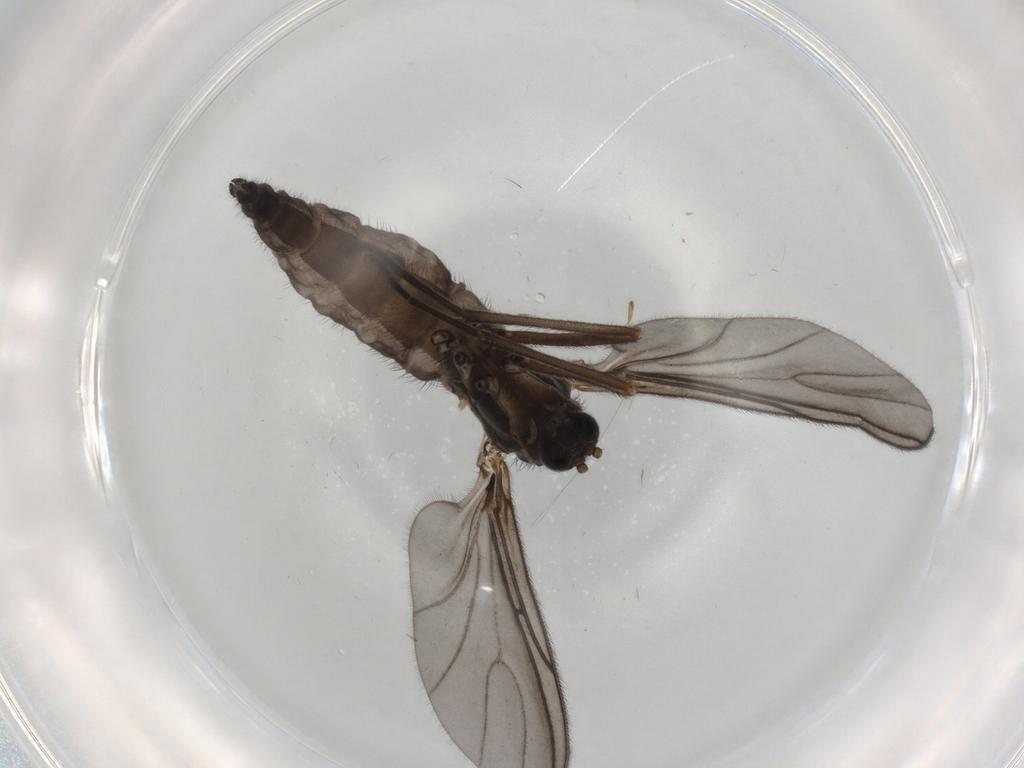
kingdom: Animalia
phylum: Arthropoda
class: Insecta
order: Diptera
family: Sciaridae
